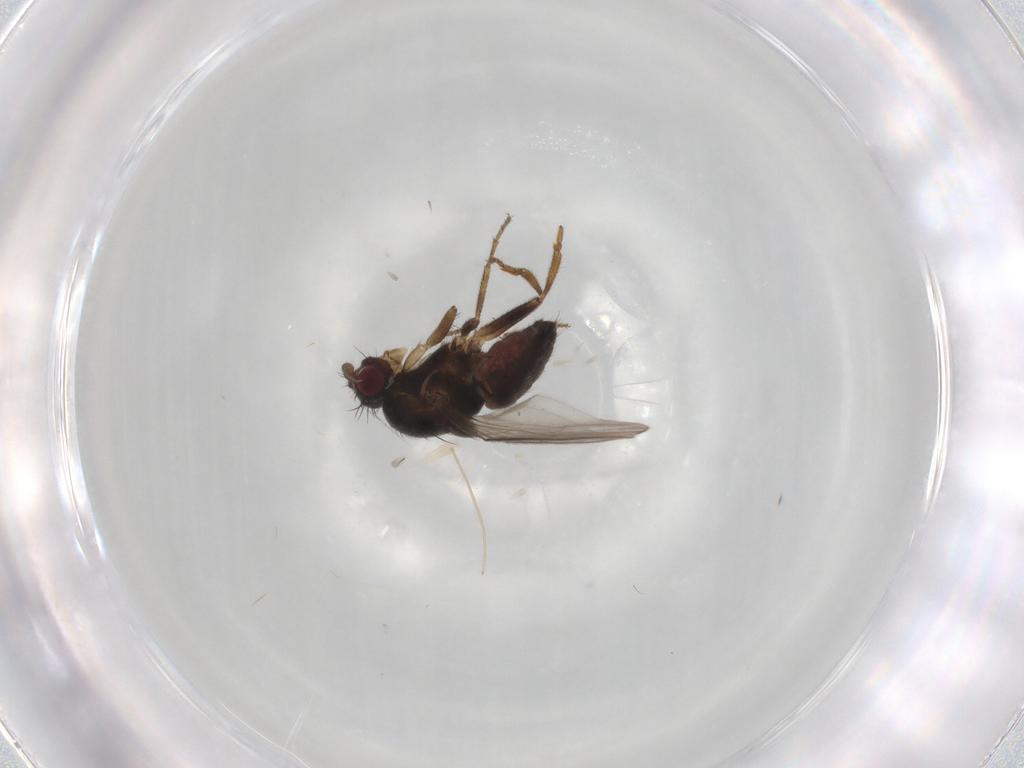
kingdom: Animalia
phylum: Arthropoda
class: Insecta
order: Diptera
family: Sphaeroceridae
